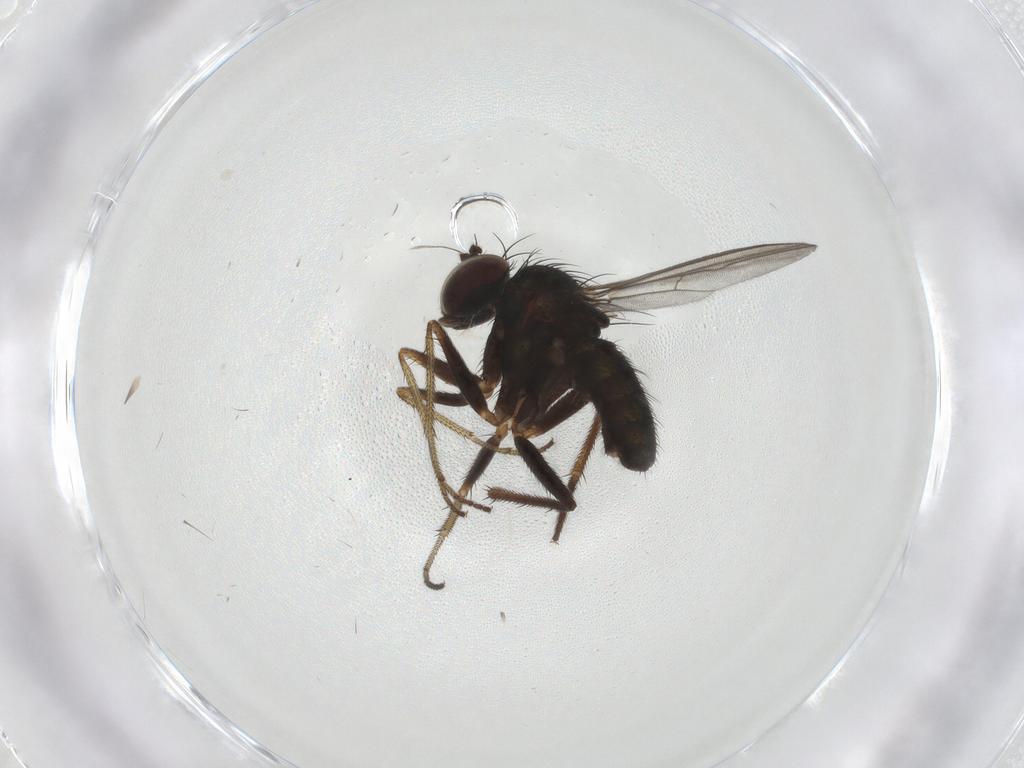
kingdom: Animalia
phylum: Arthropoda
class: Insecta
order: Diptera
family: Dolichopodidae
